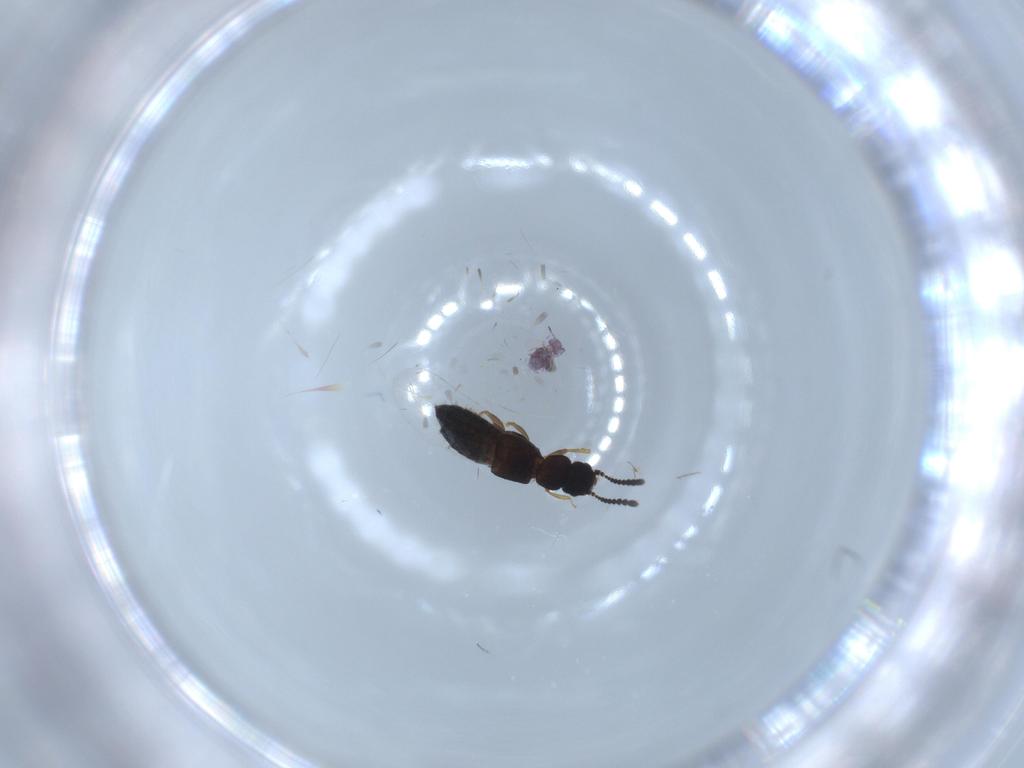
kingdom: Animalia
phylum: Arthropoda
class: Insecta
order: Coleoptera
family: Staphylinidae
